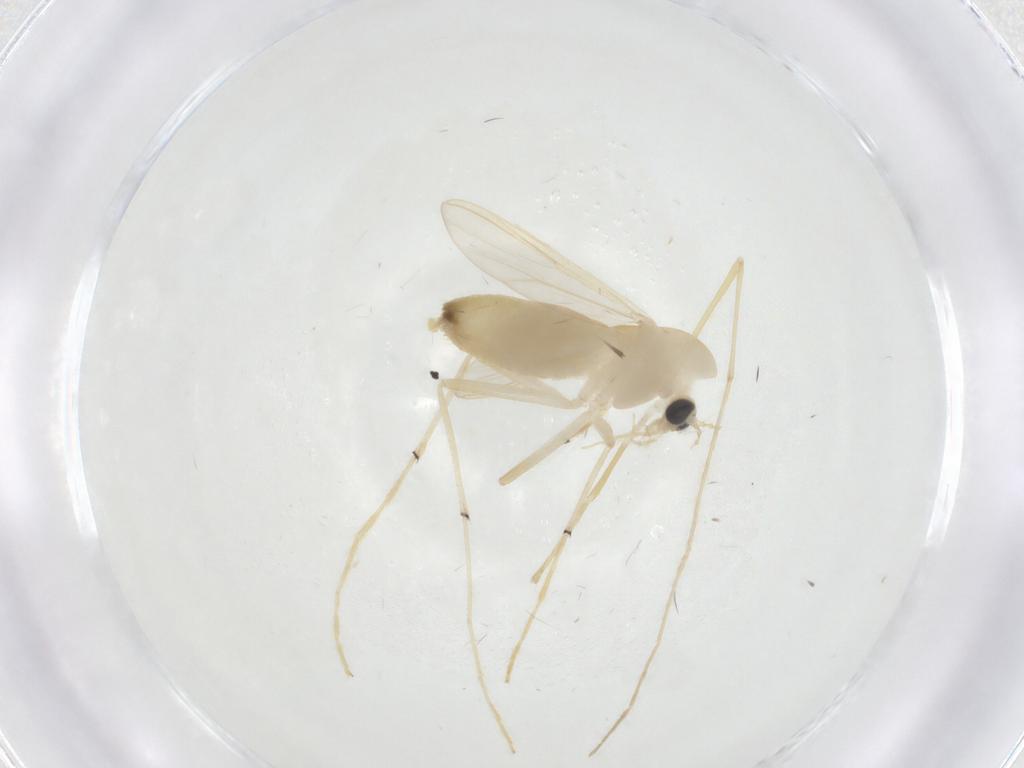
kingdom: Animalia
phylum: Arthropoda
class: Insecta
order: Diptera
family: Chironomidae
